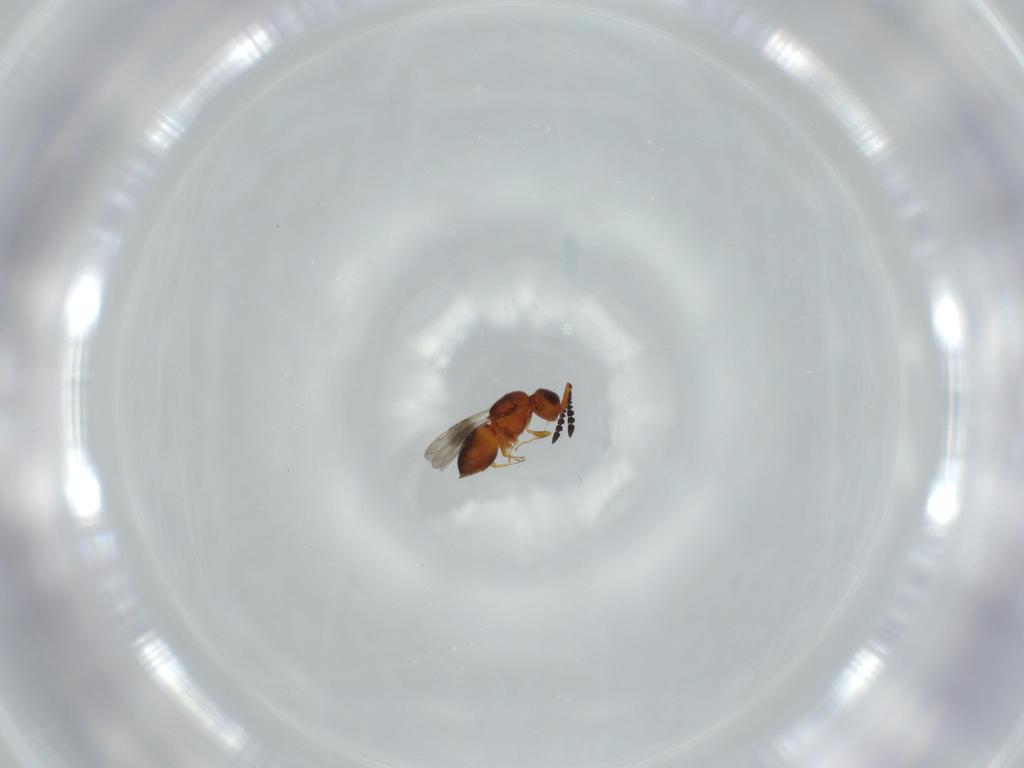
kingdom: Animalia
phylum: Arthropoda
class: Insecta
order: Hymenoptera
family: Ceraphronidae
